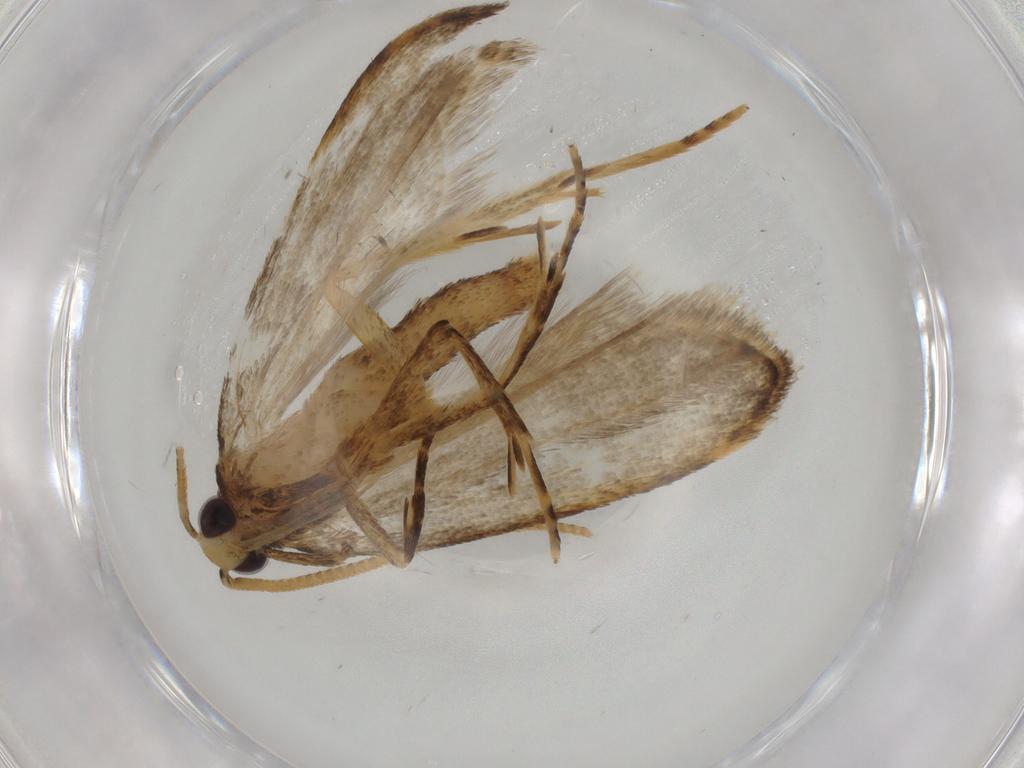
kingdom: Animalia
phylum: Arthropoda
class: Insecta
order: Lepidoptera
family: Autostichidae
